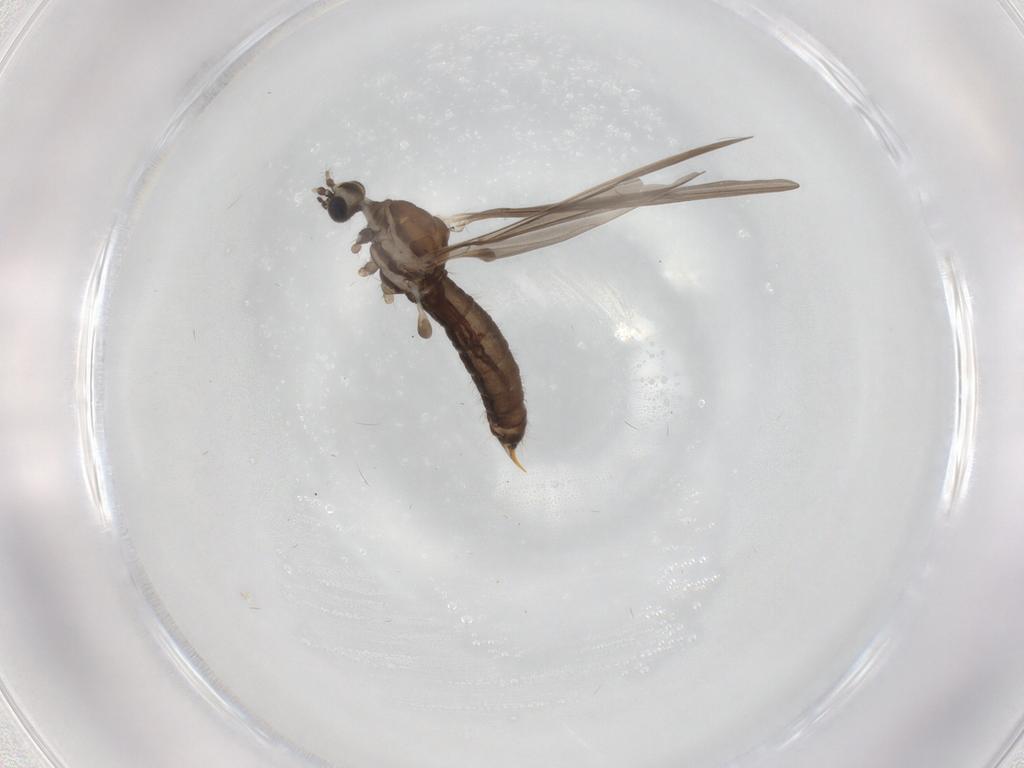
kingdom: Animalia
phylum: Arthropoda
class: Insecta
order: Diptera
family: Limoniidae
